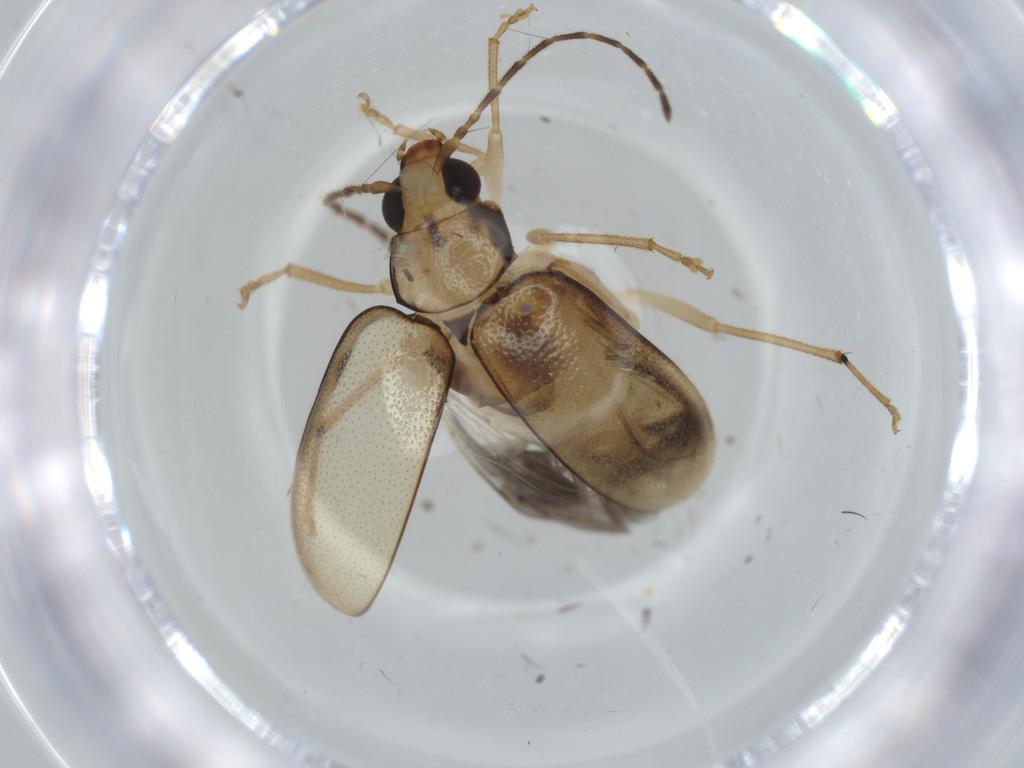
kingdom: Animalia
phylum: Arthropoda
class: Insecta
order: Coleoptera
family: Chrysomelidae
